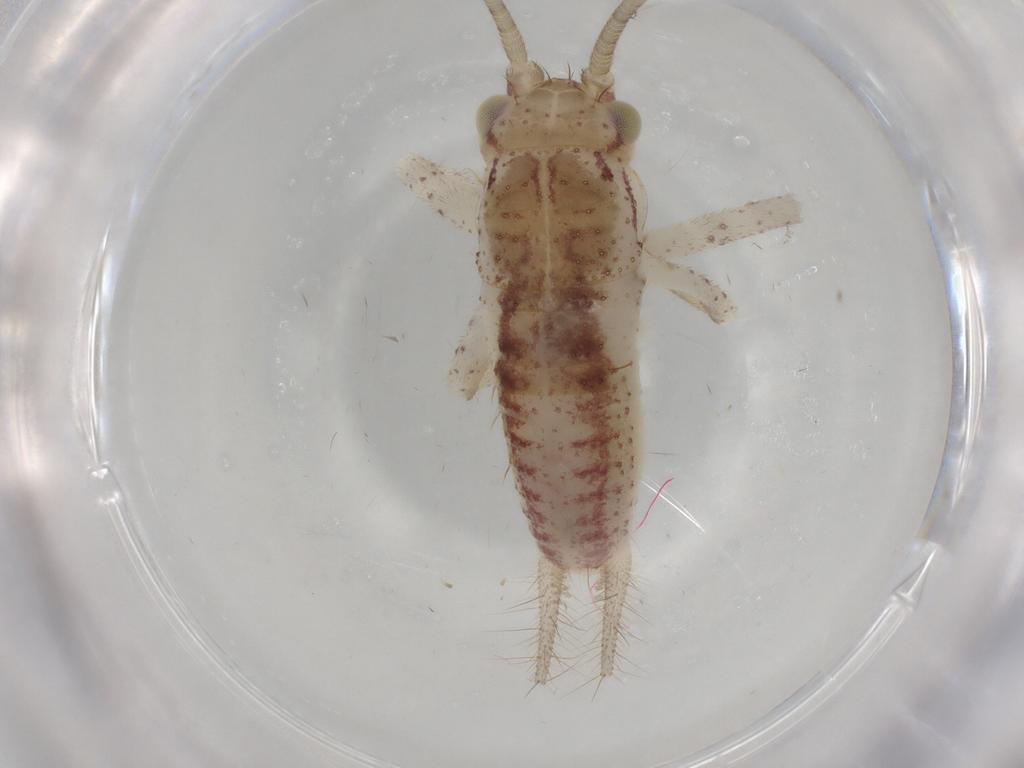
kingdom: Animalia
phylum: Arthropoda
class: Insecta
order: Orthoptera
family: Gryllidae
